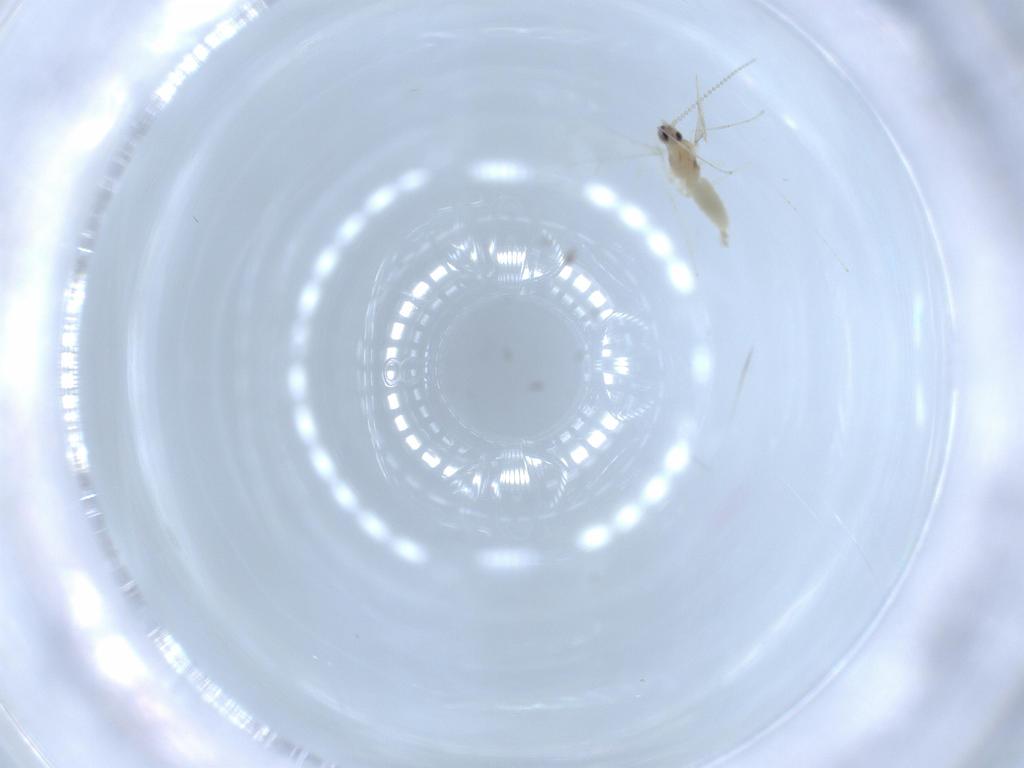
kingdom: Animalia
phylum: Arthropoda
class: Insecta
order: Diptera
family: Cecidomyiidae
